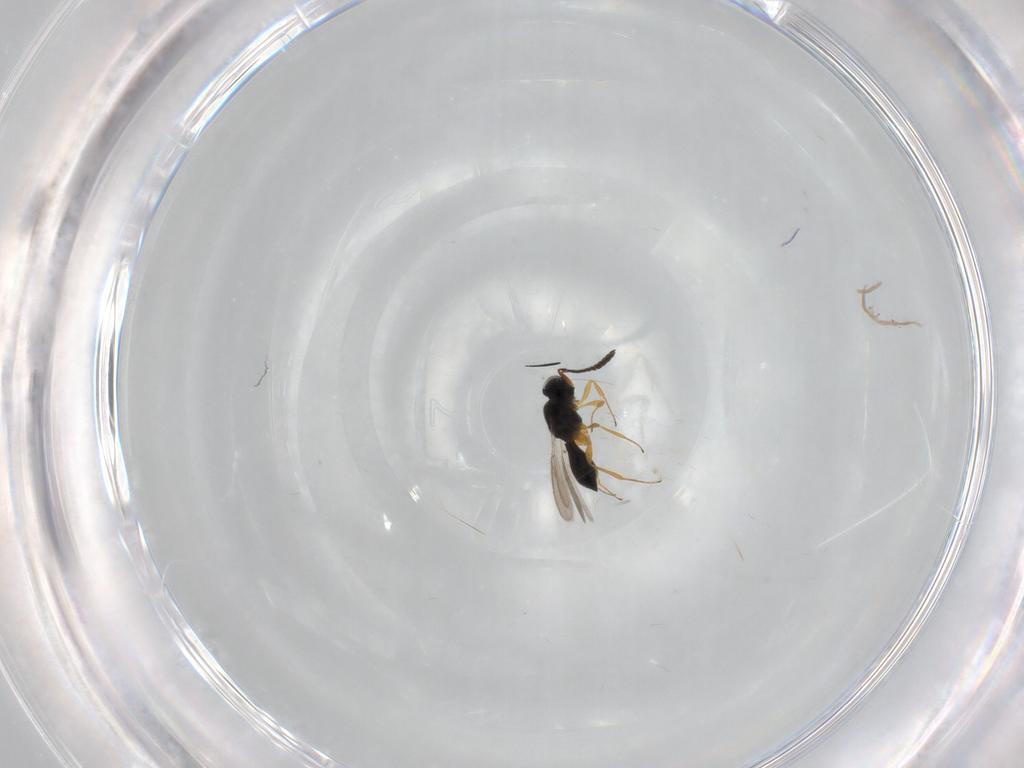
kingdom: Animalia
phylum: Arthropoda
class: Insecta
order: Hymenoptera
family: Scelionidae
